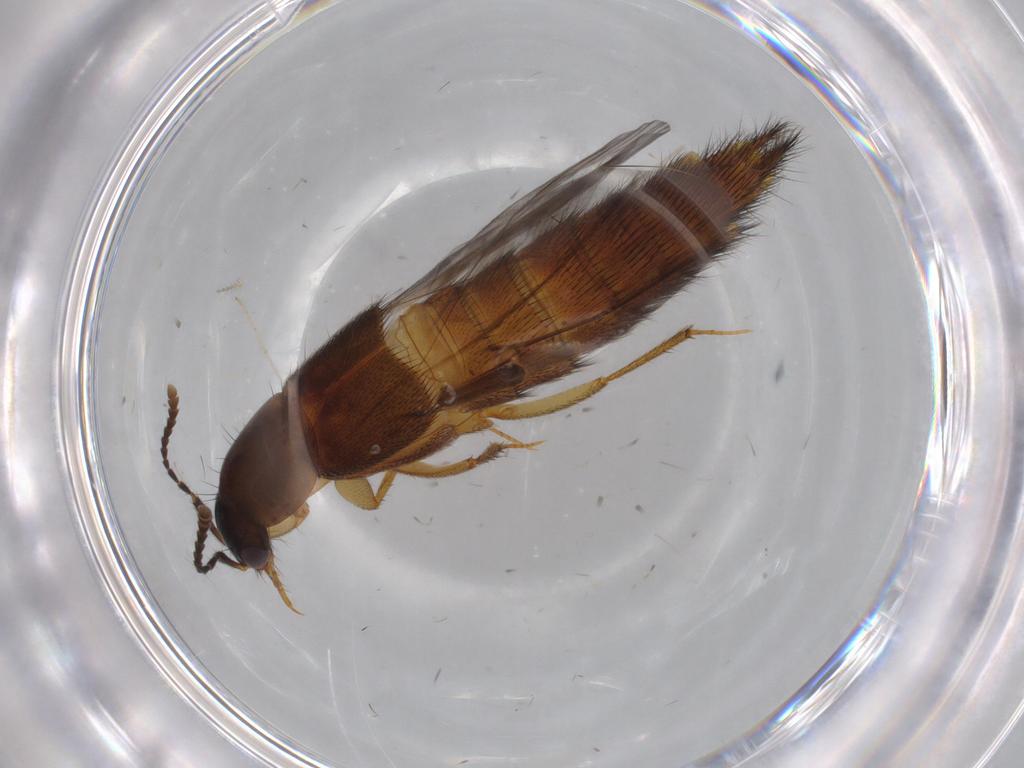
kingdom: Animalia
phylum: Arthropoda
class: Insecta
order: Coleoptera
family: Staphylinidae
